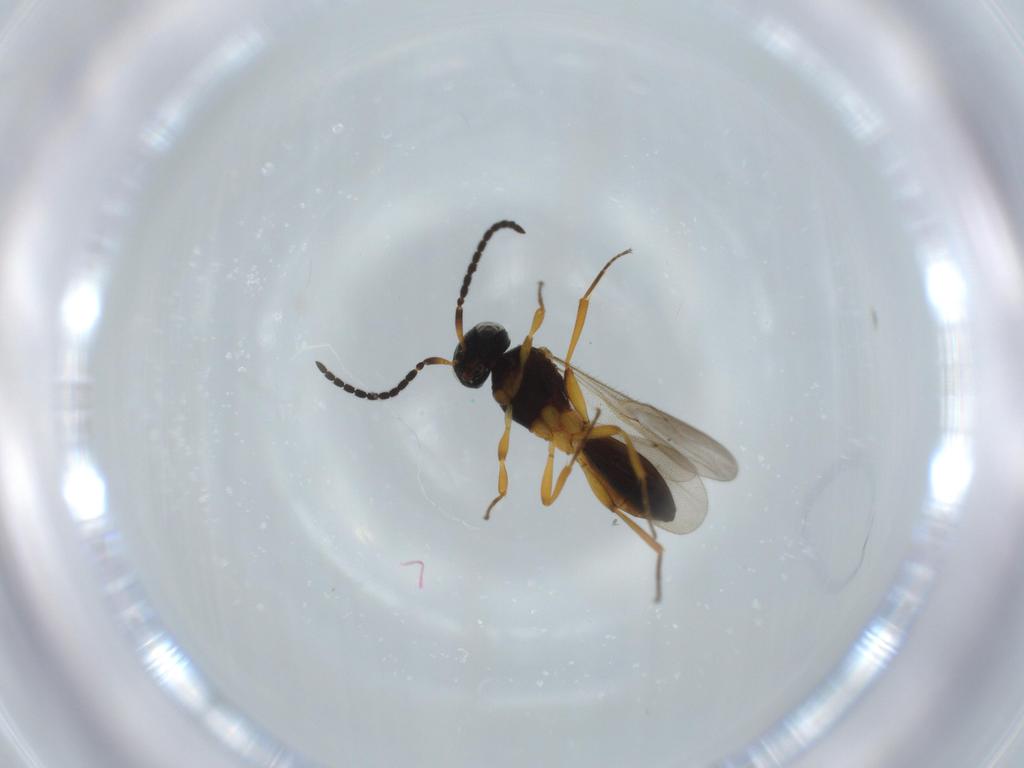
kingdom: Animalia
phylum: Arthropoda
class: Insecta
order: Hymenoptera
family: Scelionidae
